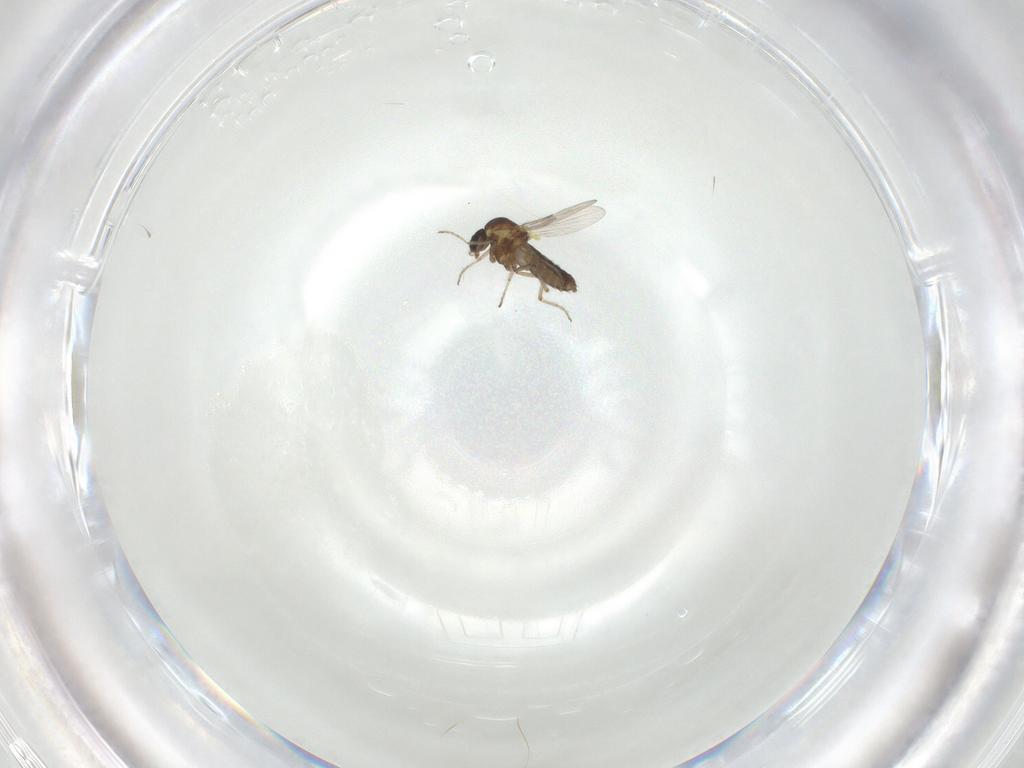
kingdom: Animalia
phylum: Arthropoda
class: Insecta
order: Diptera
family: Ceratopogonidae
